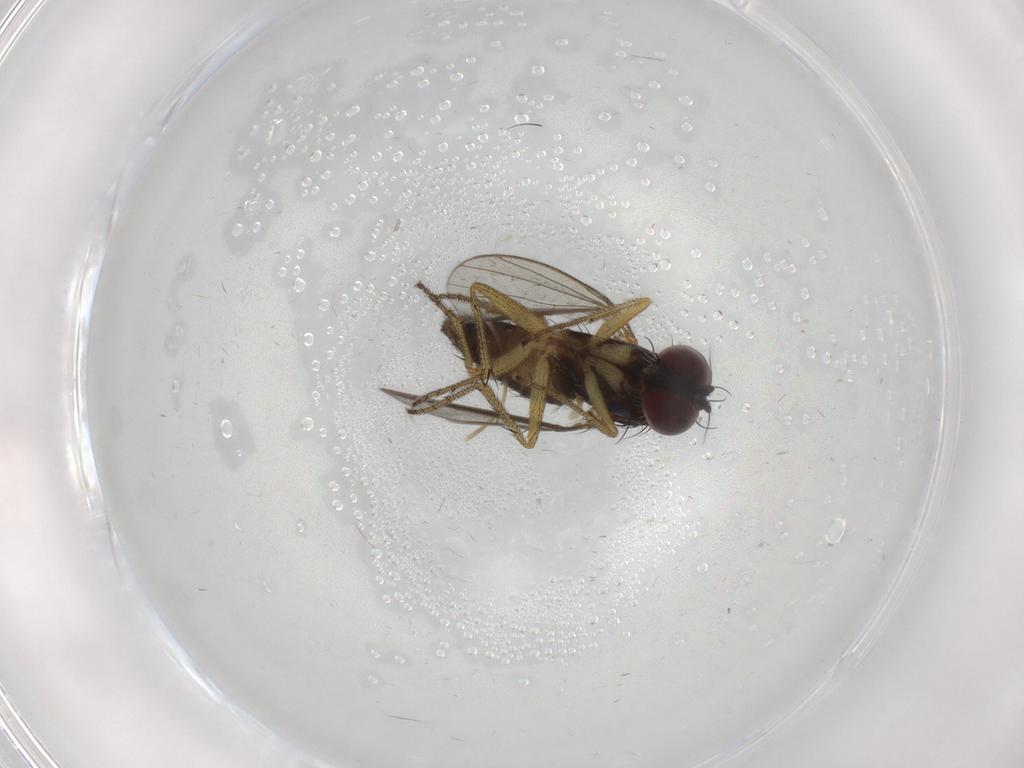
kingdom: Animalia
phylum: Arthropoda
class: Insecta
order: Diptera
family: Dolichopodidae
